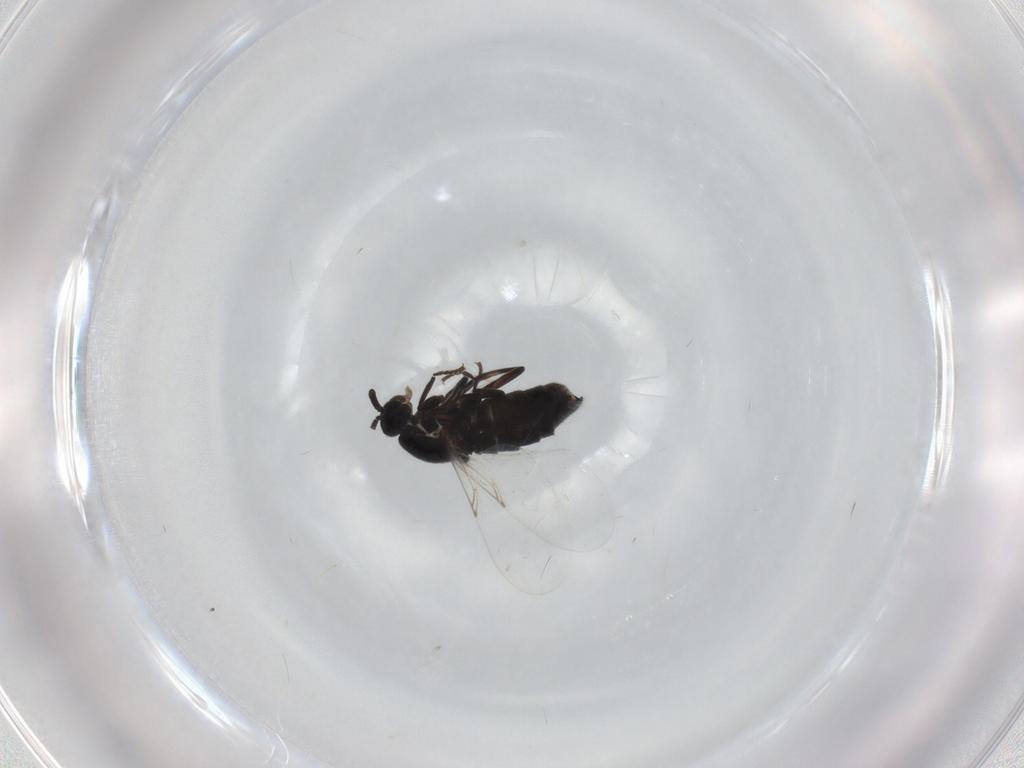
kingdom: Animalia
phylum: Arthropoda
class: Insecta
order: Diptera
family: Scatopsidae
